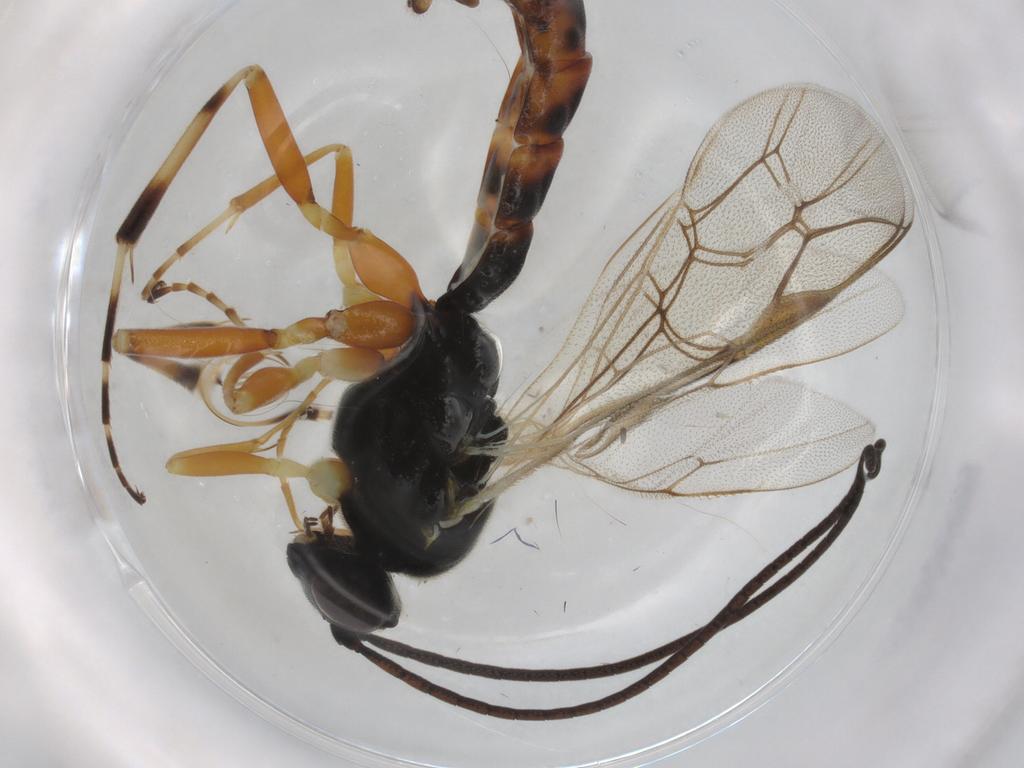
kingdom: Animalia
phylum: Arthropoda
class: Insecta
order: Hymenoptera
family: Ichneumonidae
